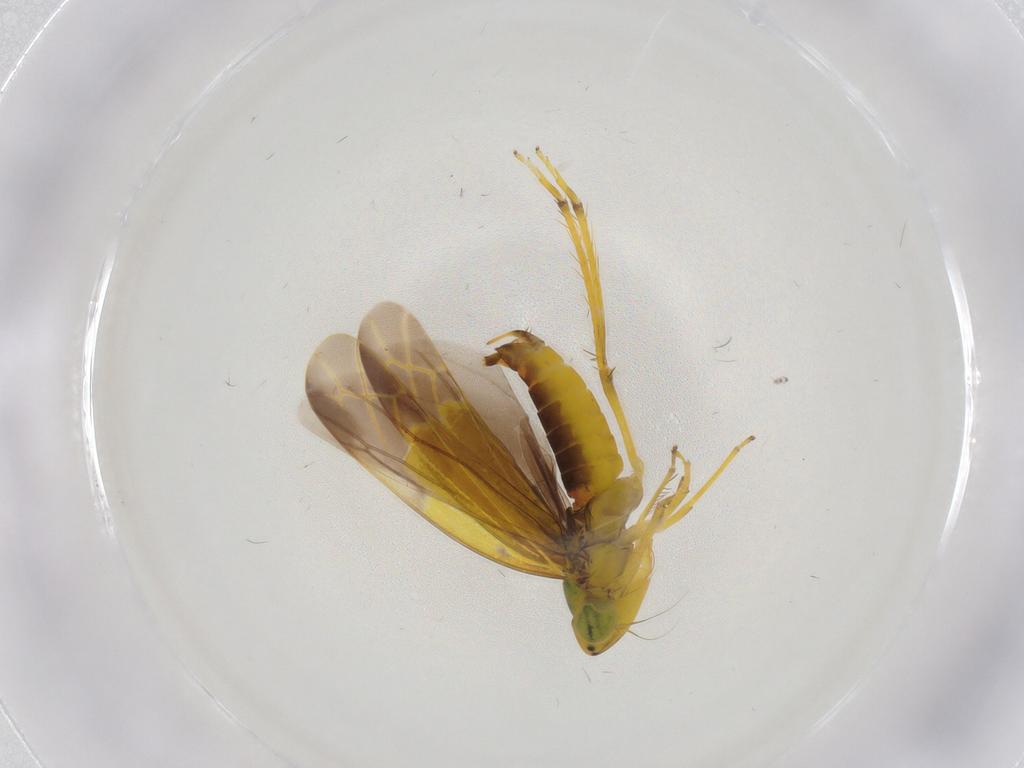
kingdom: Animalia
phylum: Arthropoda
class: Insecta
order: Hemiptera
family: Cicadellidae
